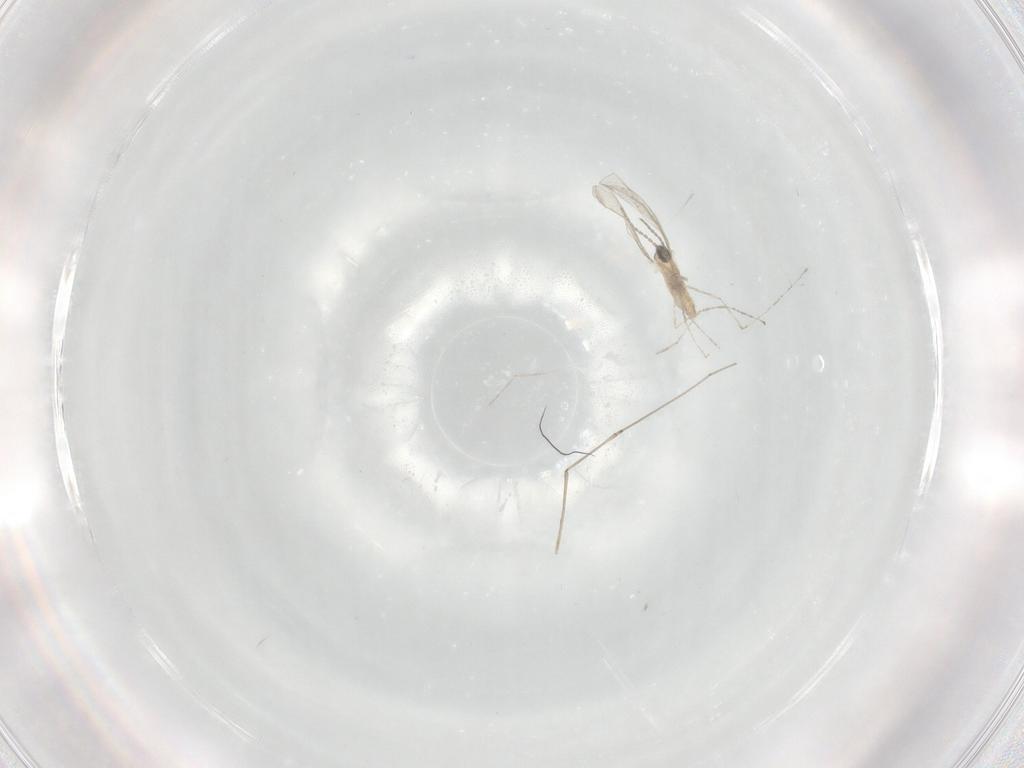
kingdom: Animalia
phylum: Arthropoda
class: Insecta
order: Diptera
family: Cecidomyiidae
